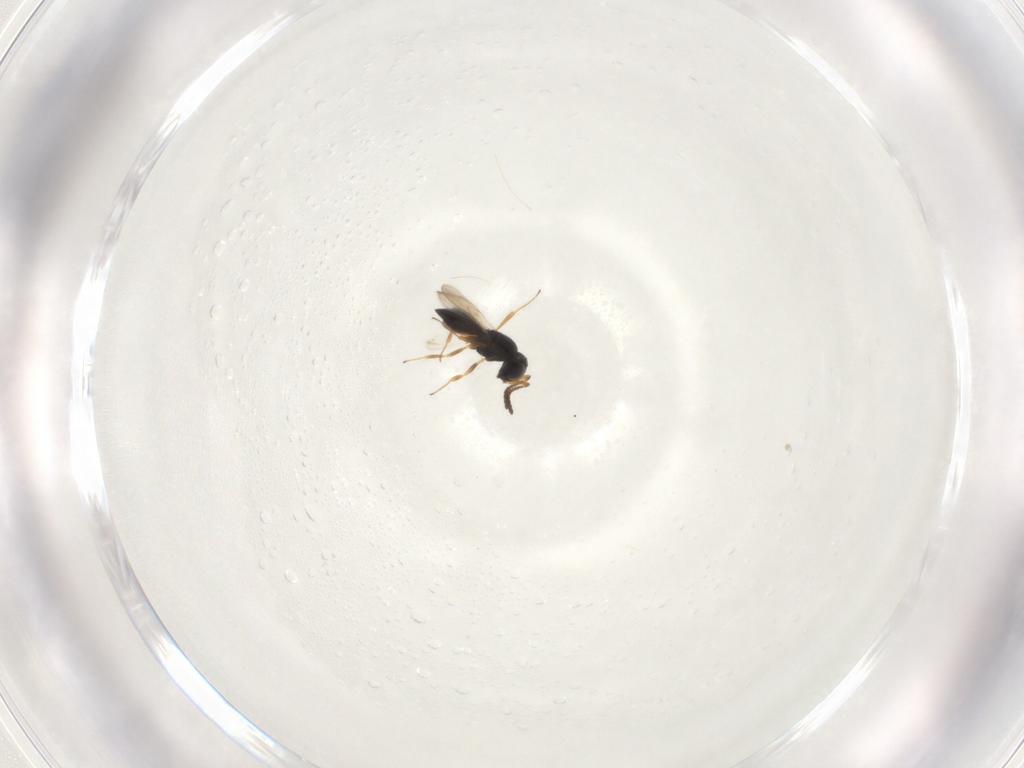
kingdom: Animalia
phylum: Arthropoda
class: Insecta
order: Hymenoptera
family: Scelionidae
